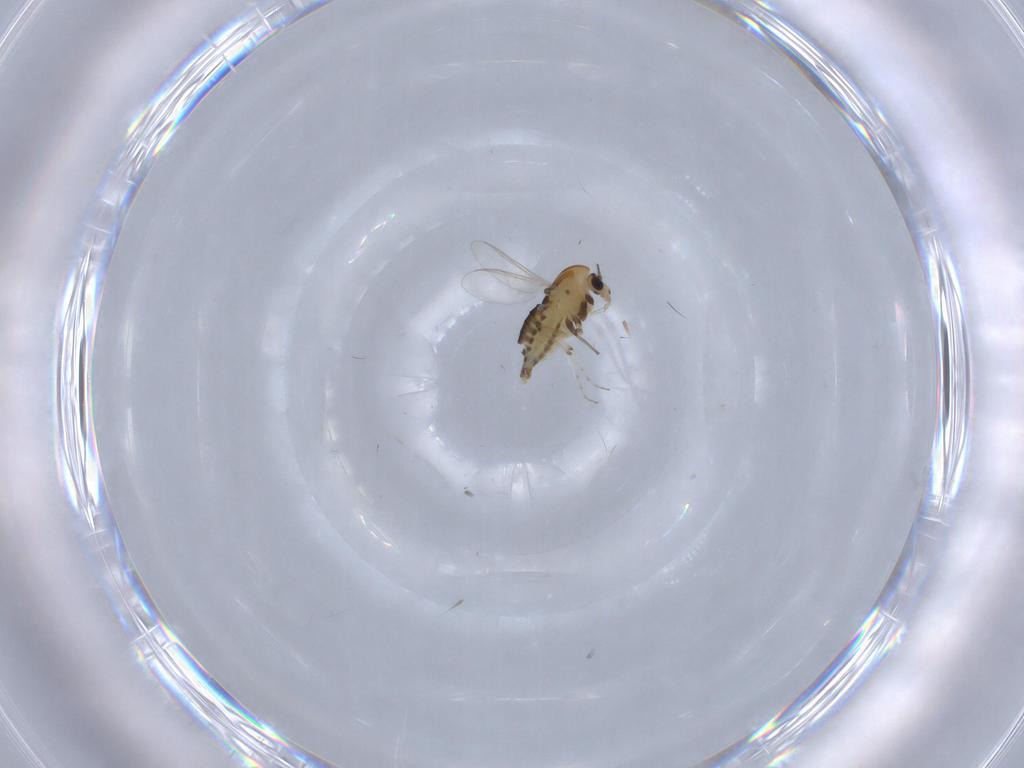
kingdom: Animalia
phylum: Arthropoda
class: Insecta
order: Diptera
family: Chironomidae
